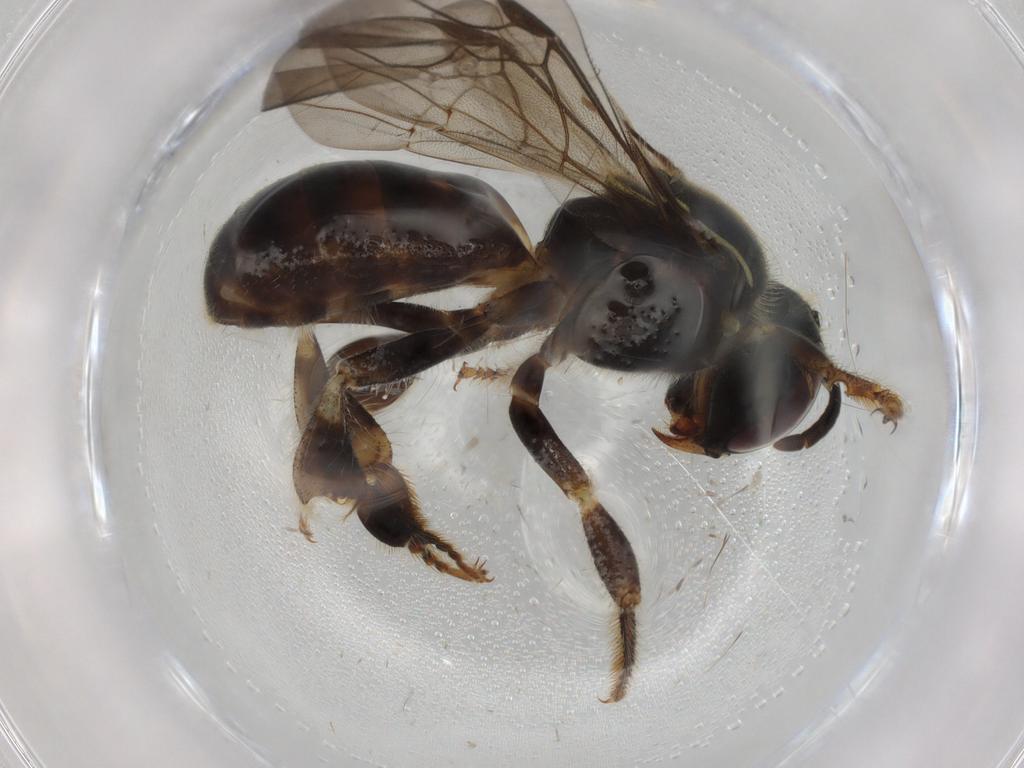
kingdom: Animalia
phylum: Arthropoda
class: Insecta
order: Hymenoptera
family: Apidae
